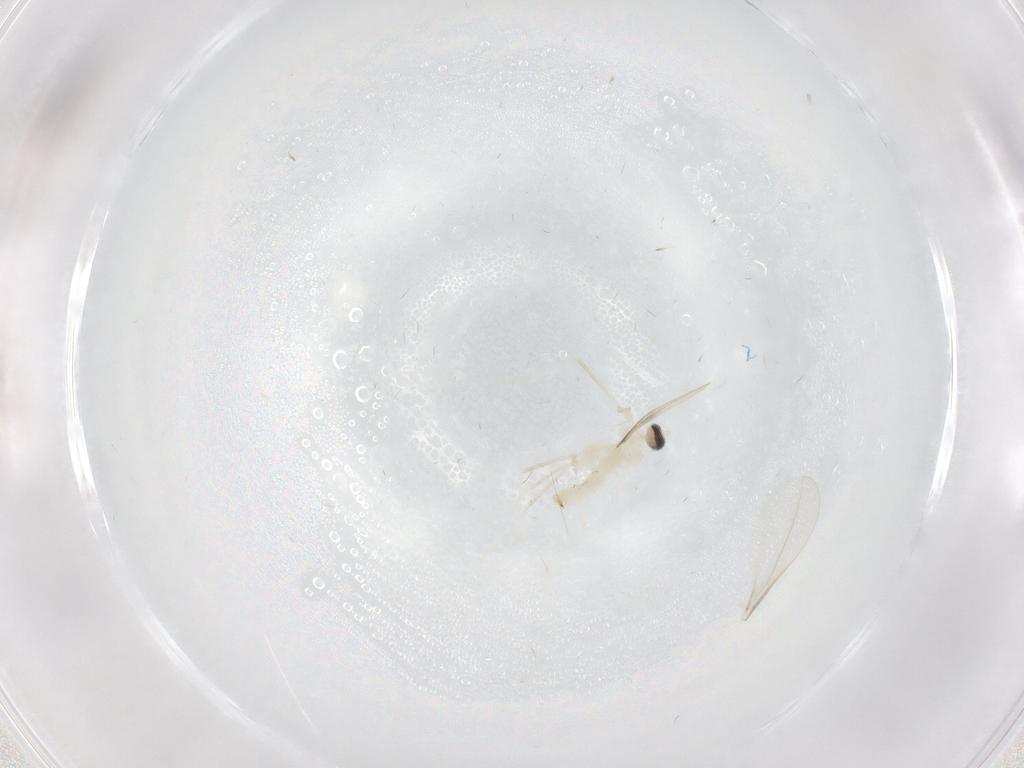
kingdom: Animalia
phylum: Arthropoda
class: Insecta
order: Diptera
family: Cecidomyiidae
